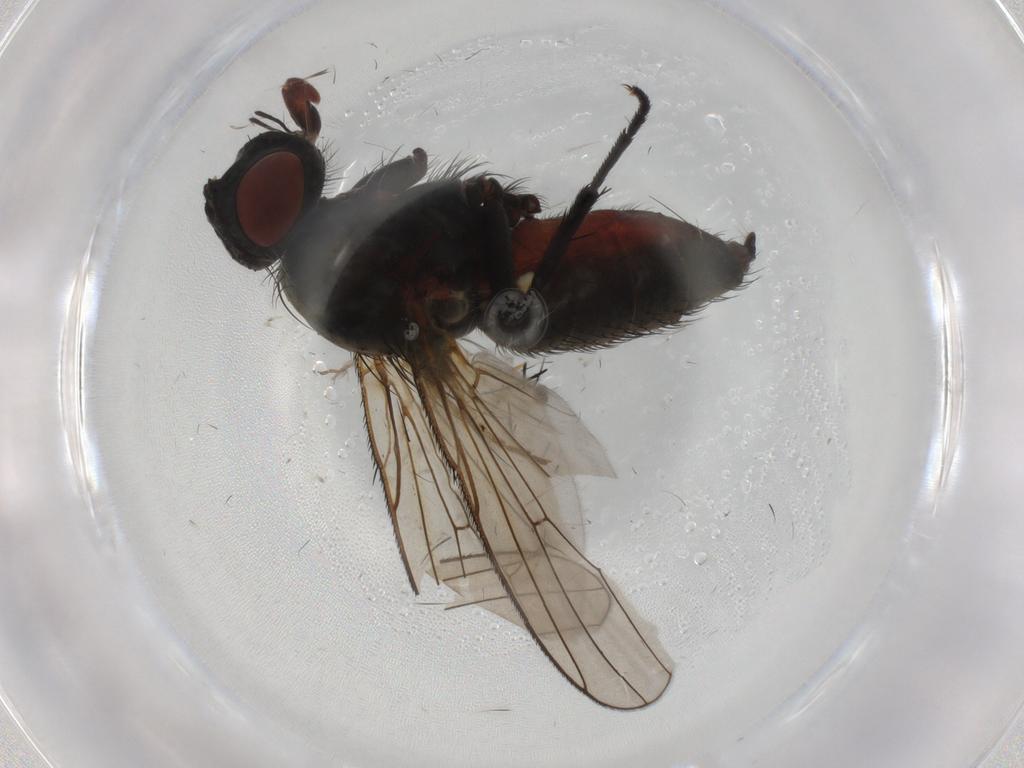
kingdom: Animalia
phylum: Arthropoda
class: Insecta
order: Diptera
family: Anthomyiidae
